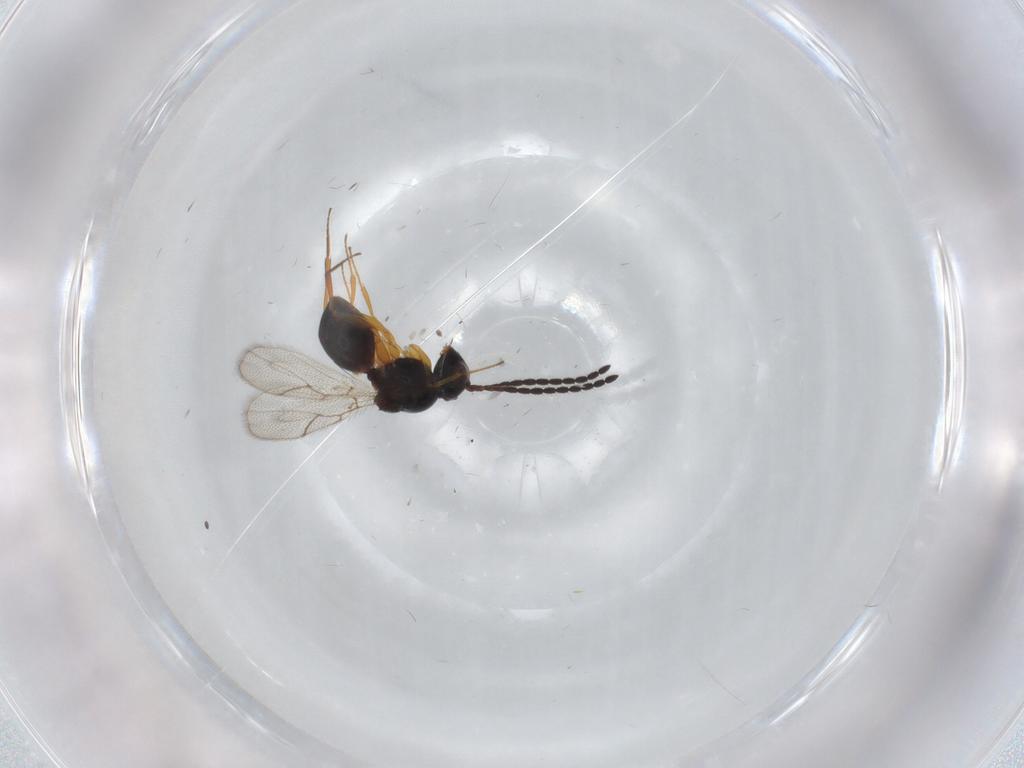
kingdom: Animalia
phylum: Arthropoda
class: Insecta
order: Hymenoptera
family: Figitidae
